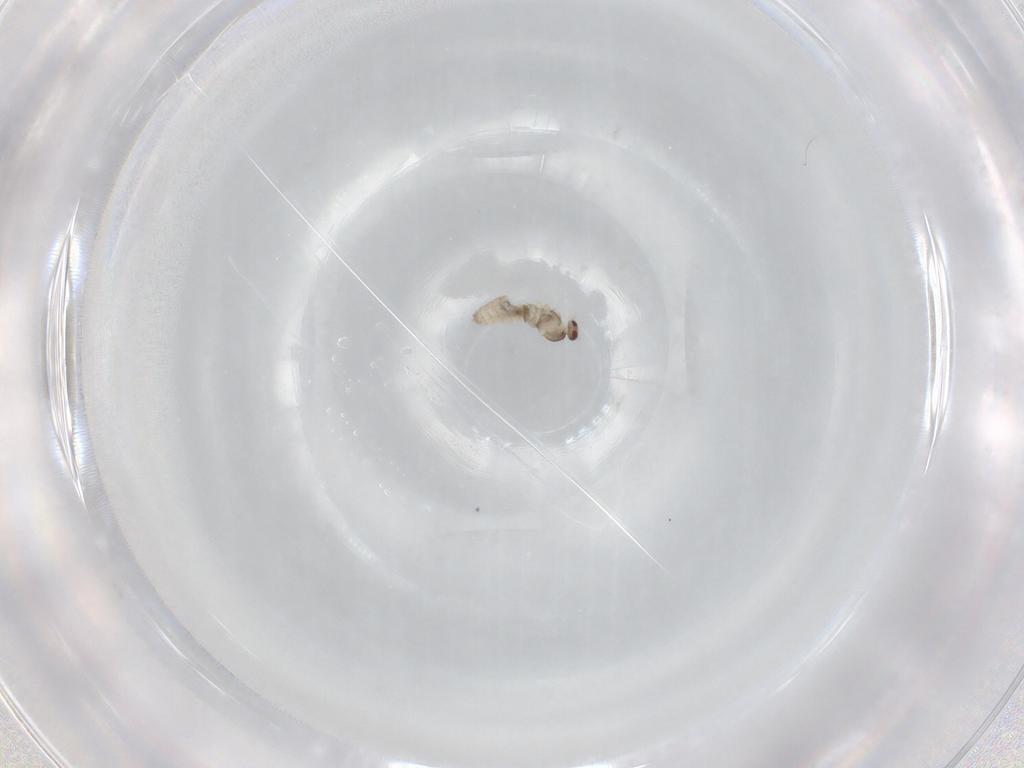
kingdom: Animalia
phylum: Arthropoda
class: Insecta
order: Diptera
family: Cecidomyiidae
